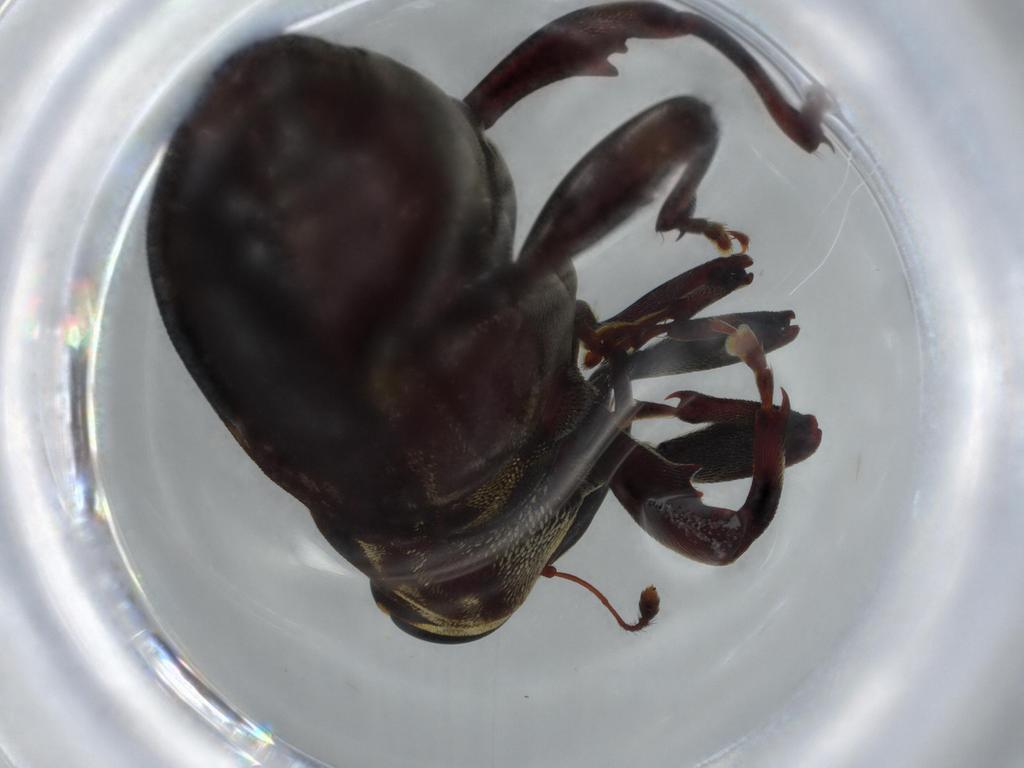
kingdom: Animalia
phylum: Arthropoda
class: Insecta
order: Coleoptera
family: Curculionidae
